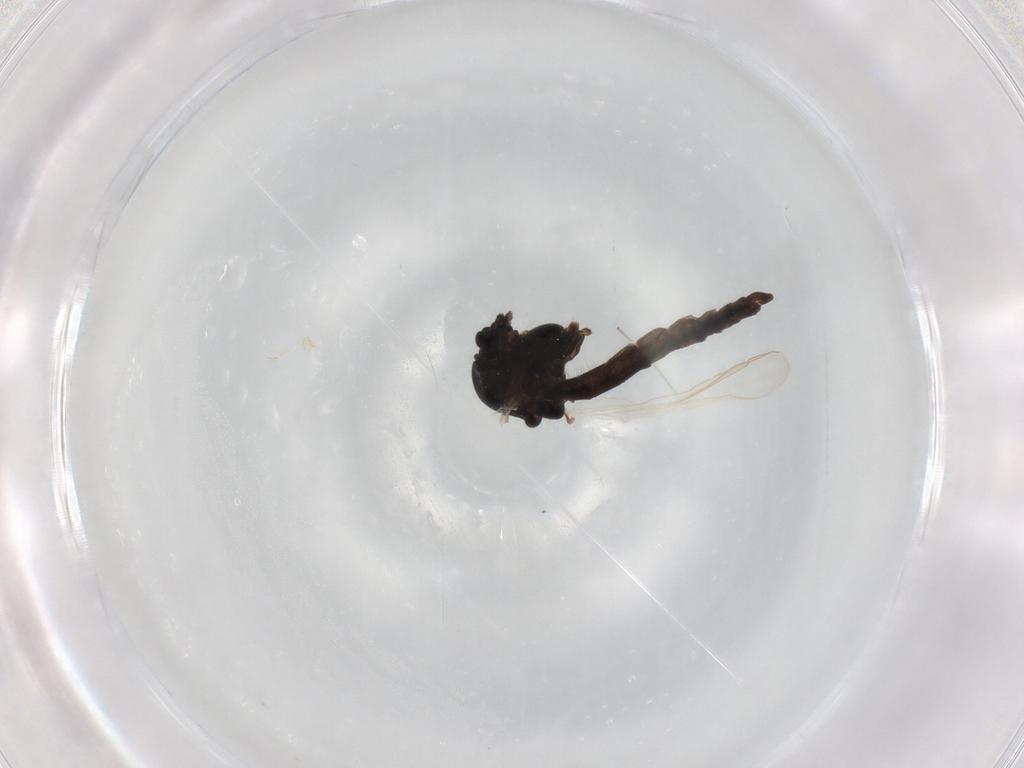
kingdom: Animalia
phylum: Arthropoda
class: Insecta
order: Diptera
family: Chironomidae
